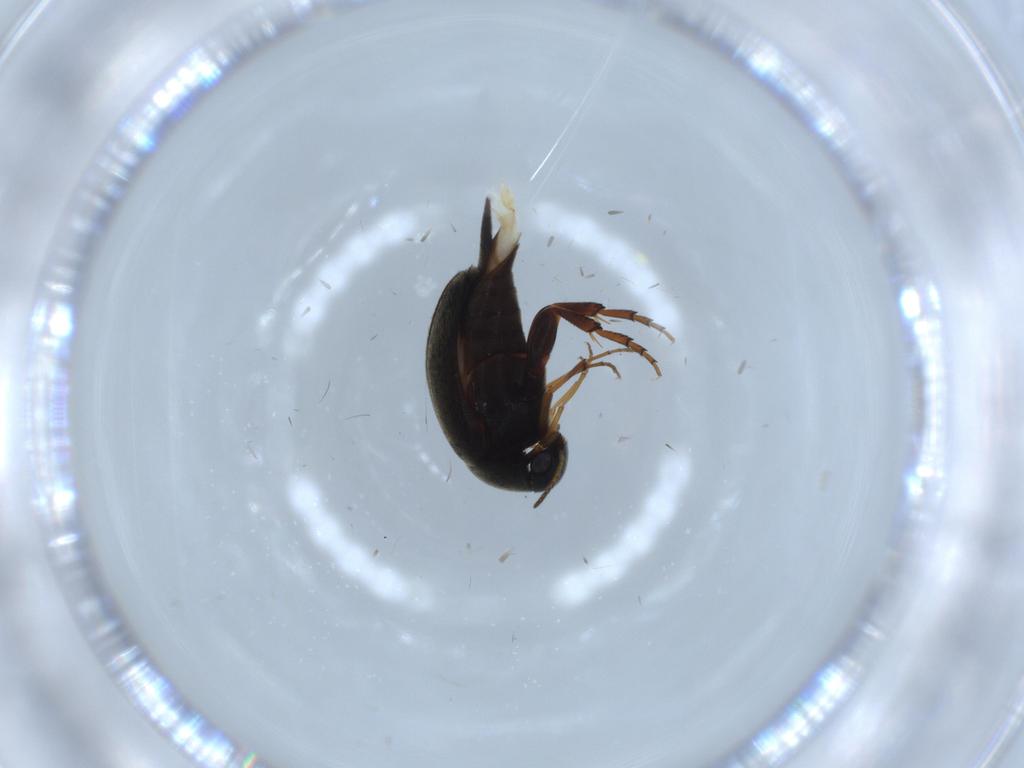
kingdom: Animalia
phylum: Arthropoda
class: Insecta
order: Coleoptera
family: Mordellidae
